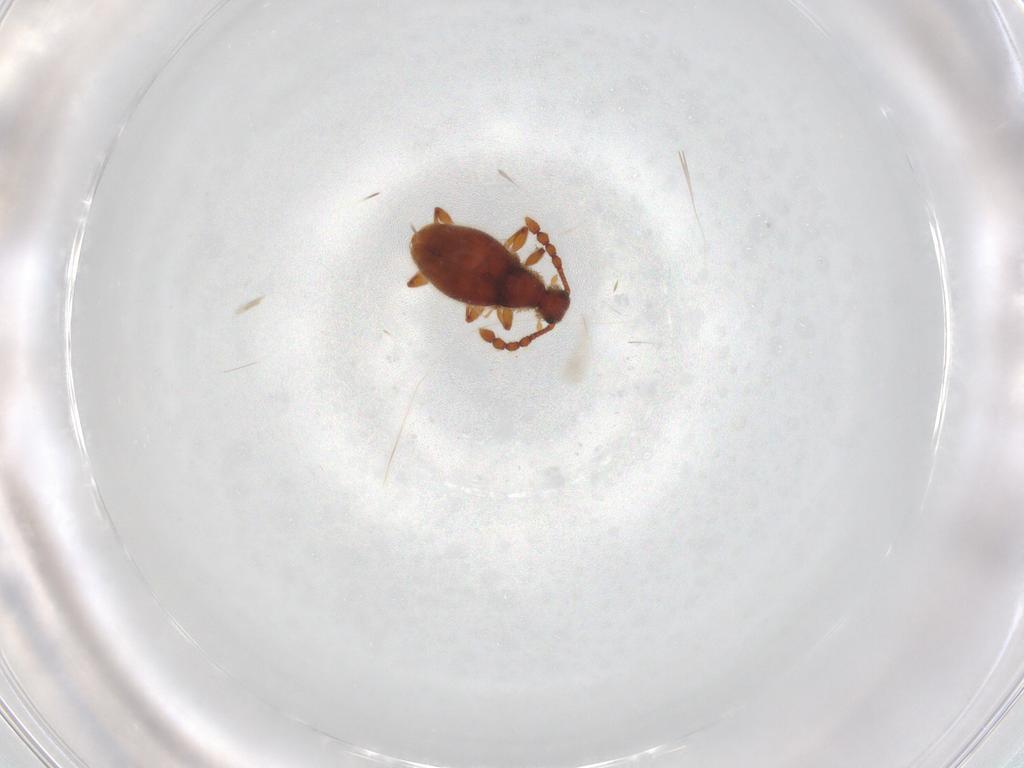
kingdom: Animalia
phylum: Arthropoda
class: Insecta
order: Coleoptera
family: Staphylinidae
